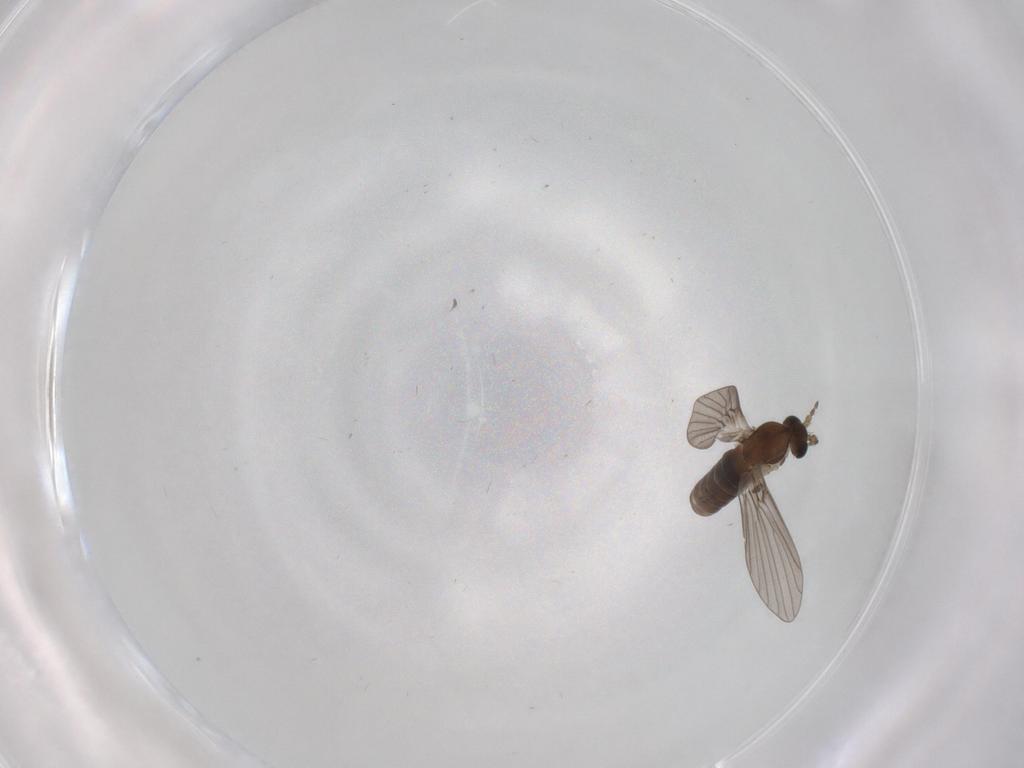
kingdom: Animalia
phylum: Arthropoda
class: Insecta
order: Diptera
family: Psychodidae
